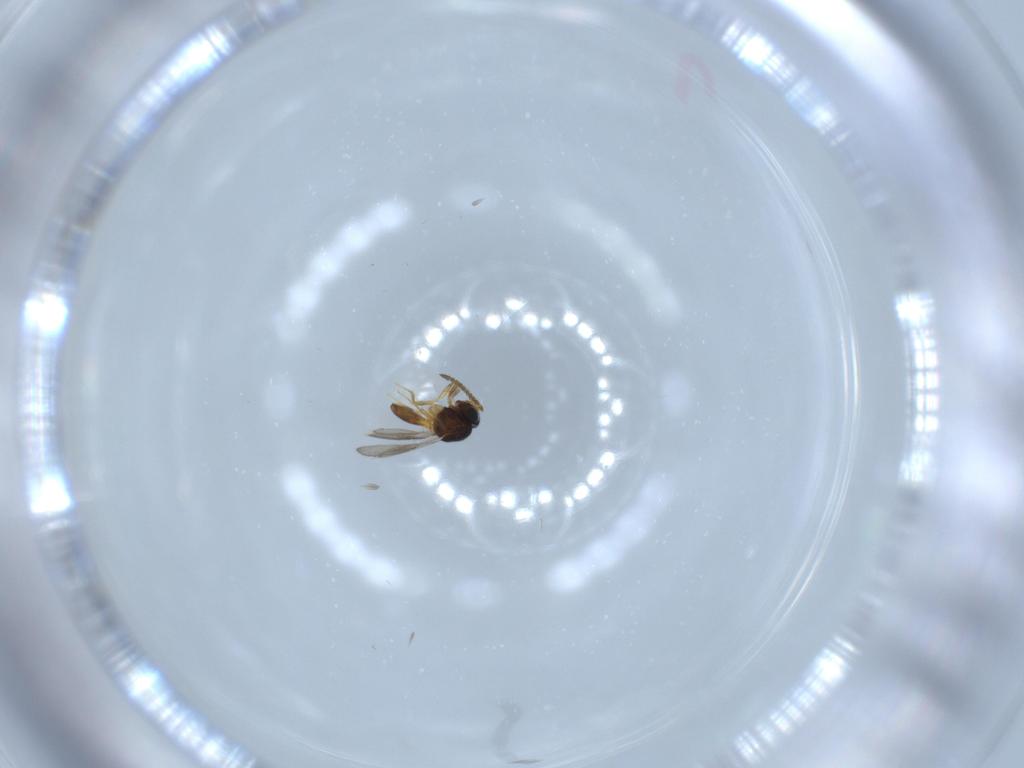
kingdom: Animalia
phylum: Arthropoda
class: Insecta
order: Hymenoptera
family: Scelionidae
